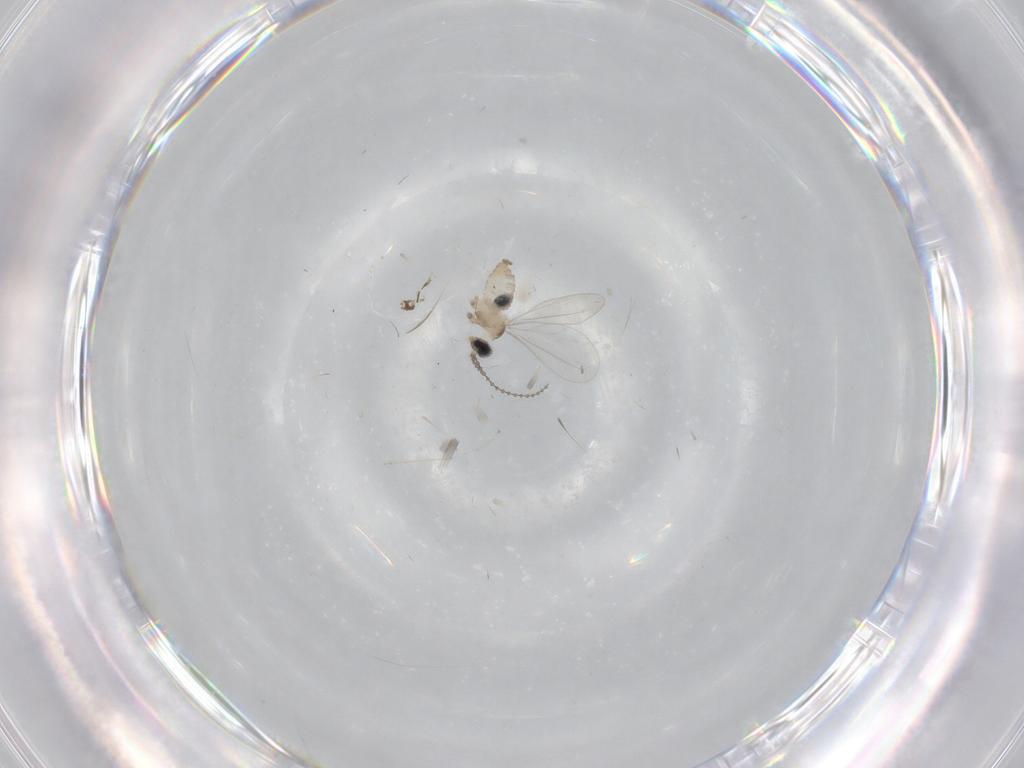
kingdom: Animalia
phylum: Arthropoda
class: Insecta
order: Diptera
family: Cecidomyiidae
